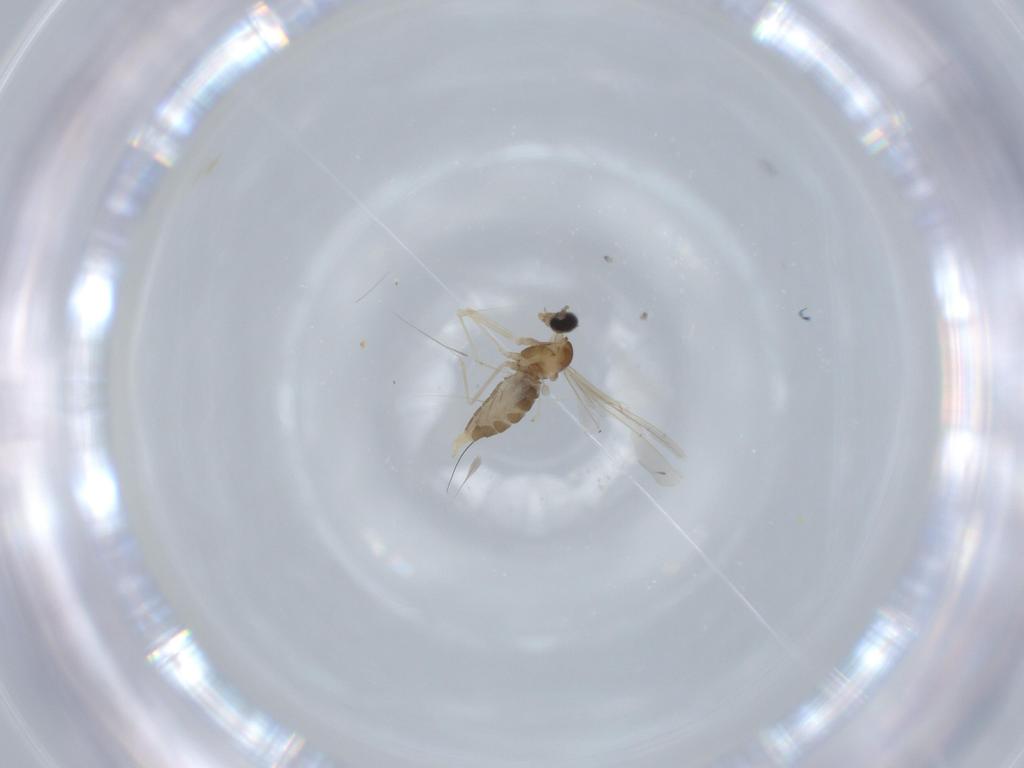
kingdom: Animalia
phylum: Arthropoda
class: Insecta
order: Diptera
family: Cecidomyiidae
